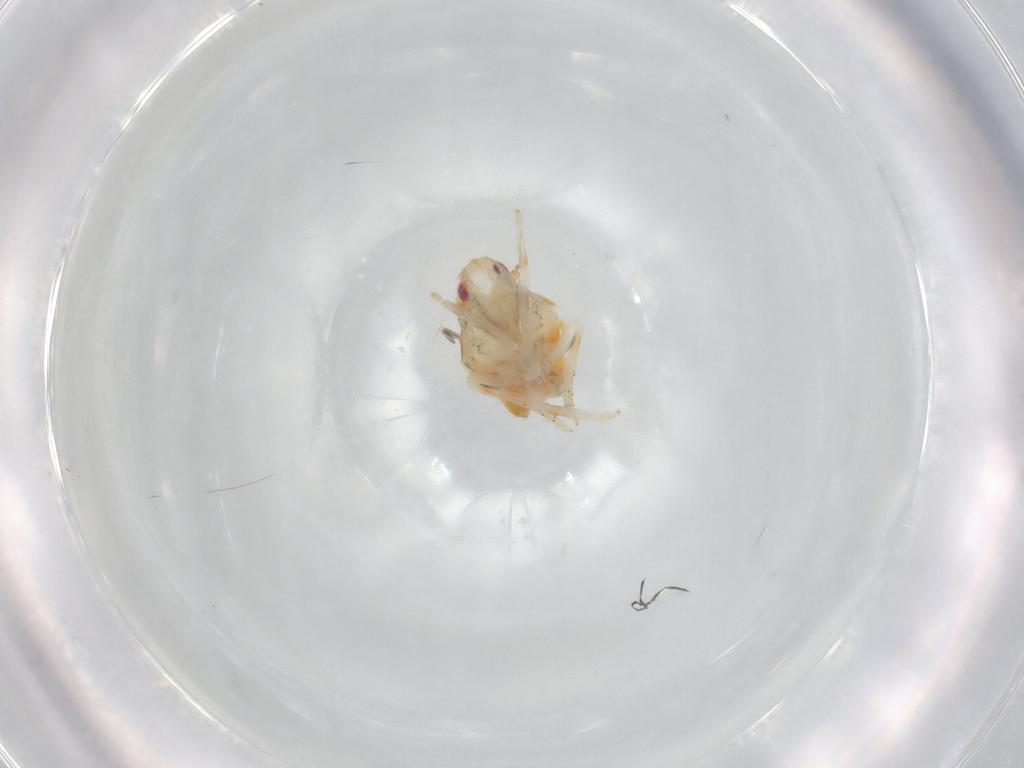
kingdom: Animalia
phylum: Arthropoda
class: Insecta
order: Hemiptera
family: Flatidae
